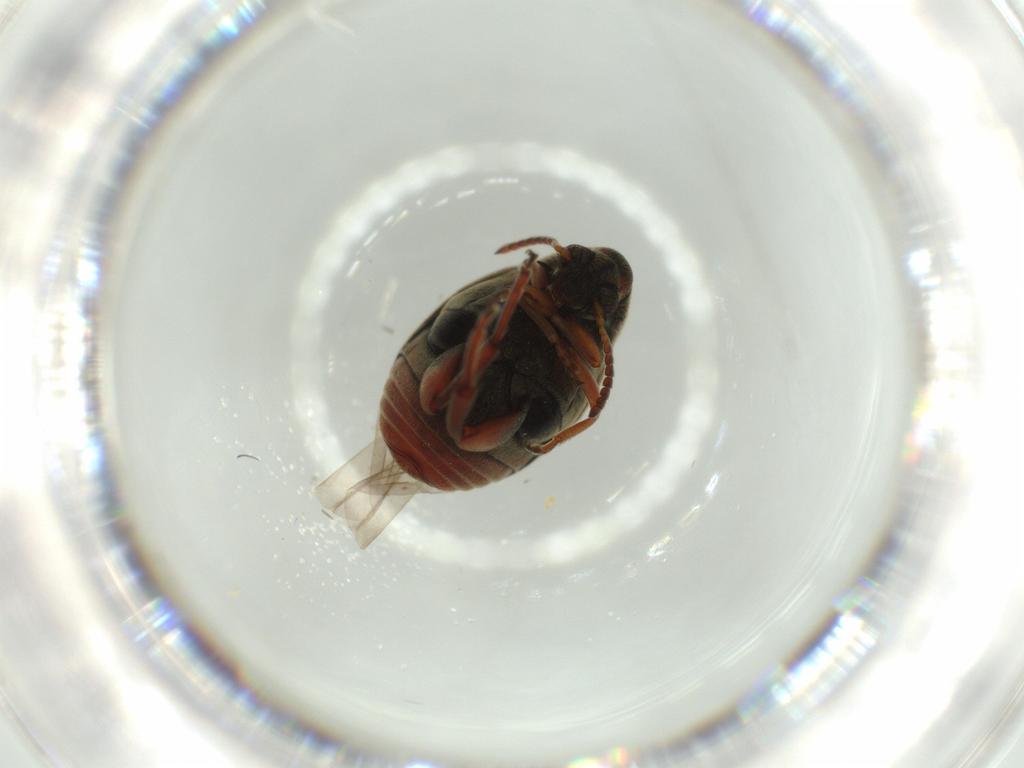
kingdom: Animalia
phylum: Arthropoda
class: Insecta
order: Coleoptera
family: Chrysomelidae
